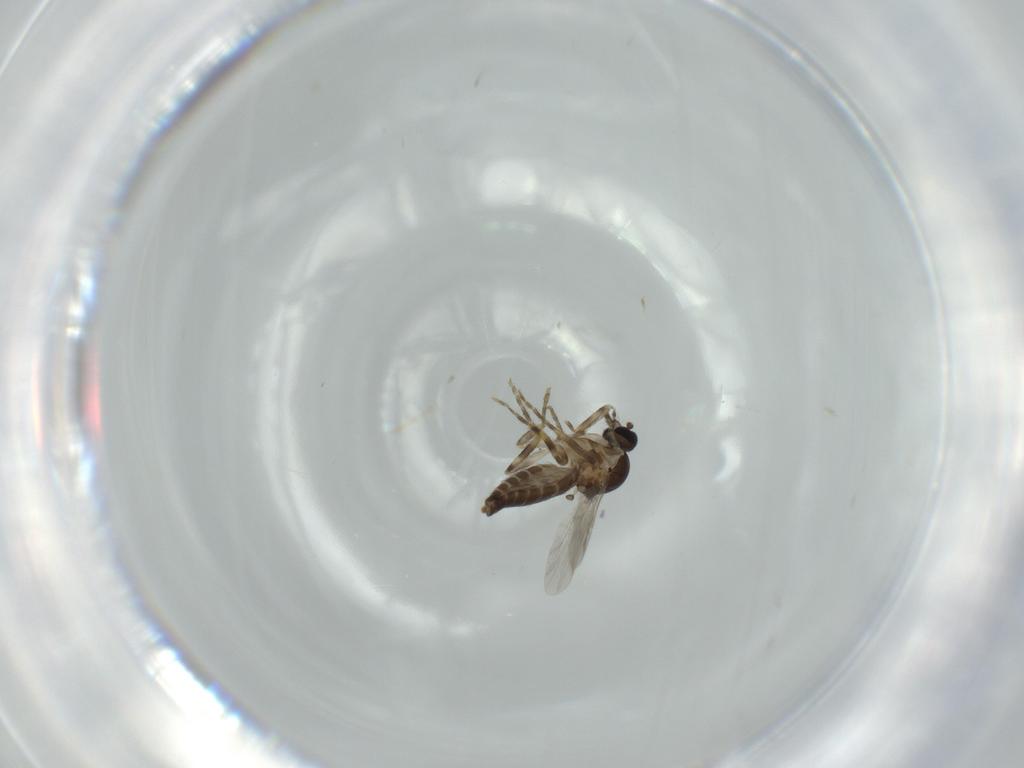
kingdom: Animalia
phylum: Arthropoda
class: Insecta
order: Diptera
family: Ceratopogonidae
